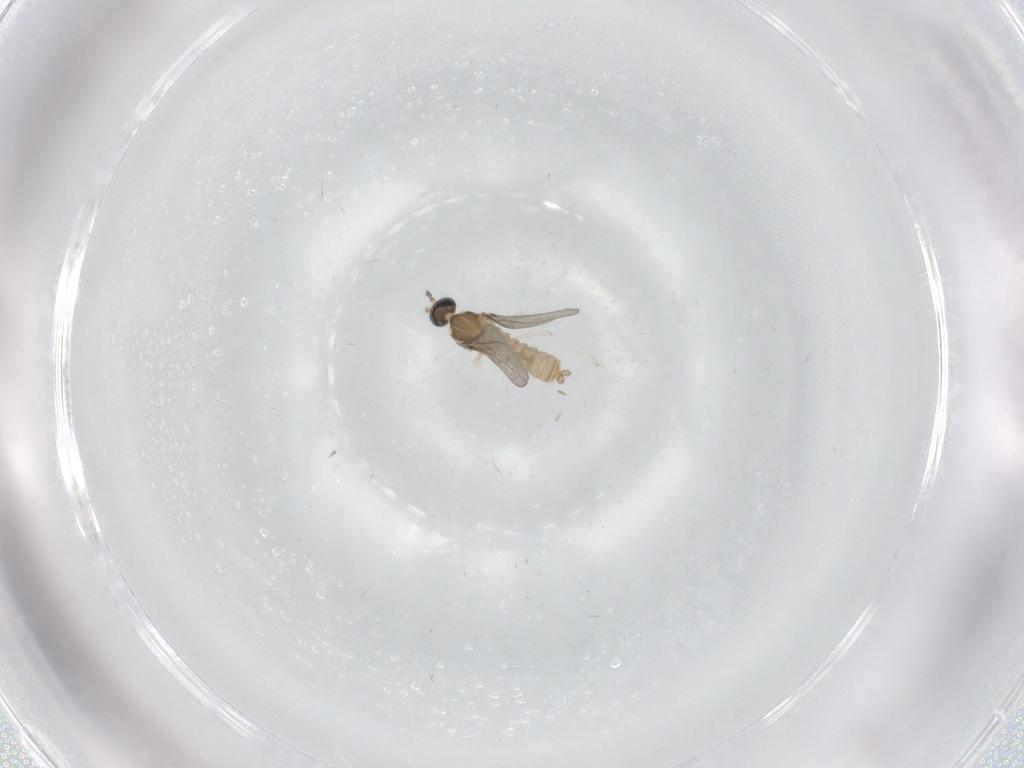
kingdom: Animalia
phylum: Arthropoda
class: Insecta
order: Diptera
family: Cecidomyiidae
